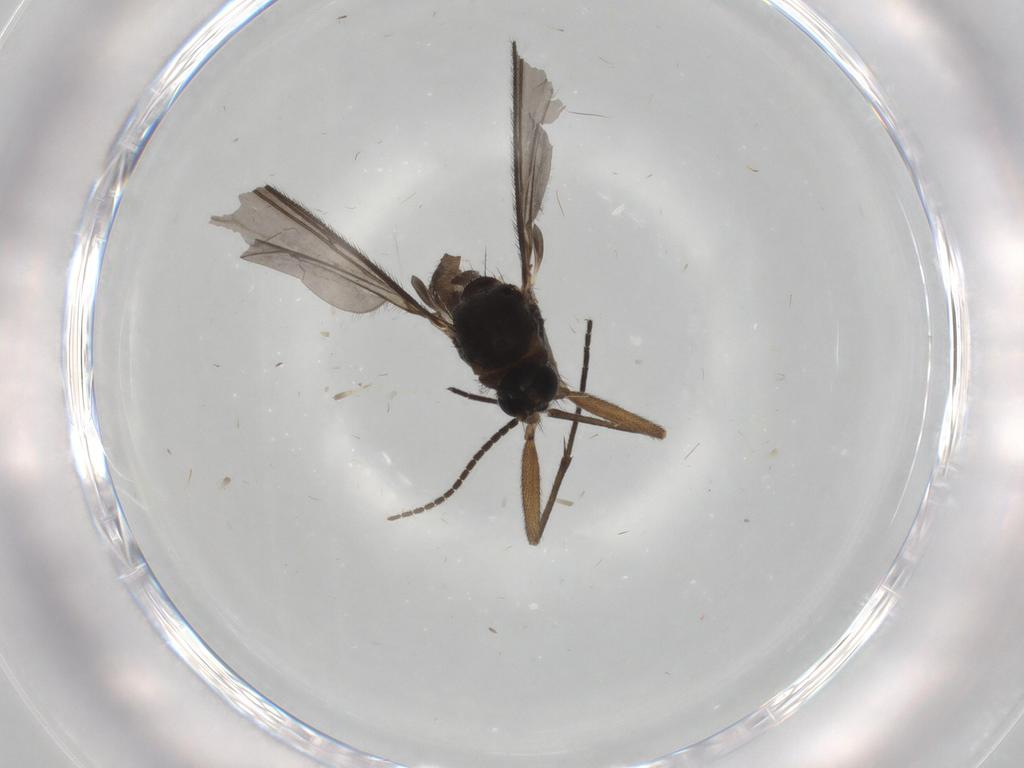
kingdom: Animalia
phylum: Arthropoda
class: Insecta
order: Diptera
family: Sciaridae
